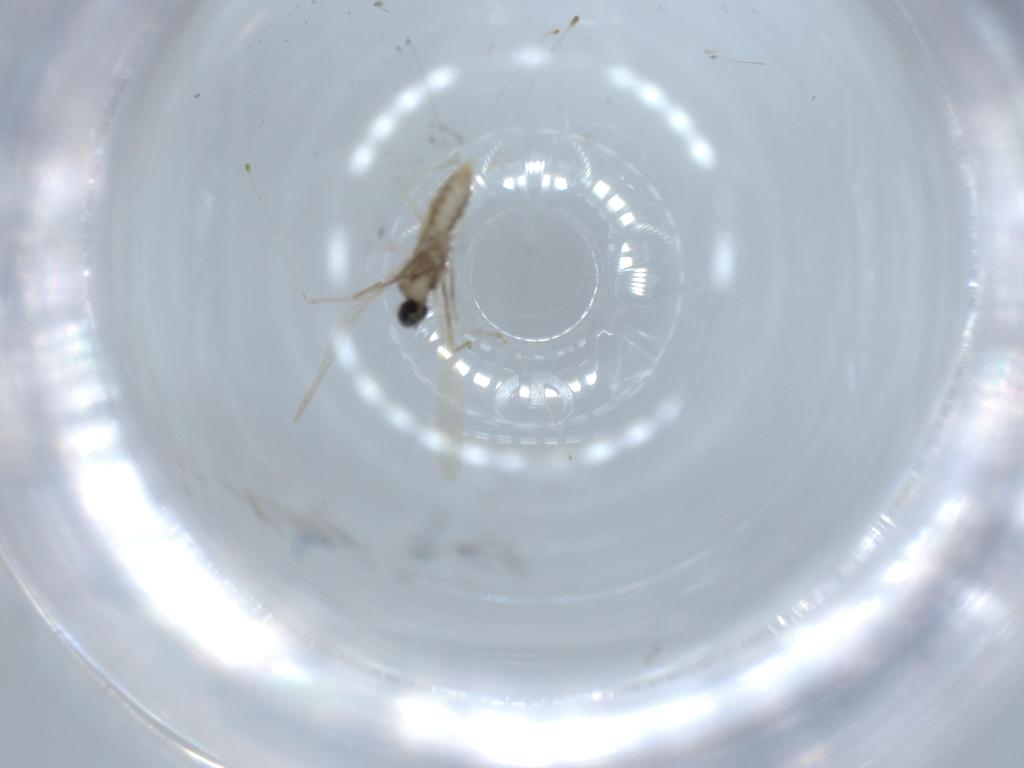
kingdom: Animalia
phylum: Arthropoda
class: Insecta
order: Diptera
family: Cecidomyiidae
